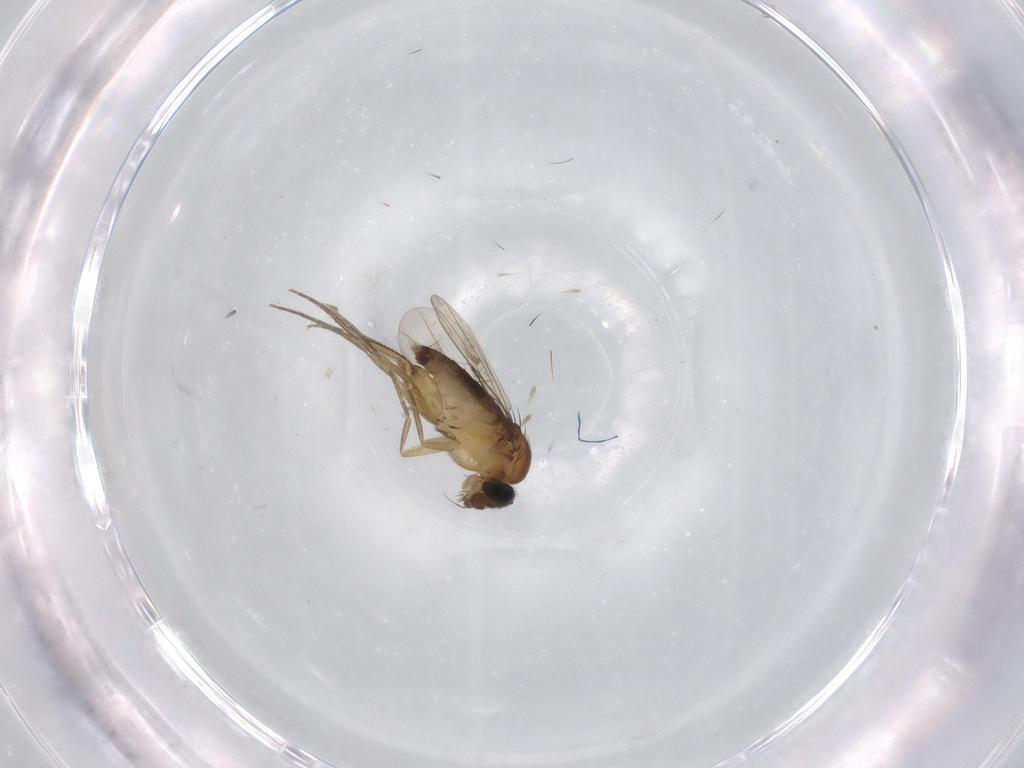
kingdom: Animalia
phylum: Arthropoda
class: Insecta
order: Diptera
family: Phoridae
